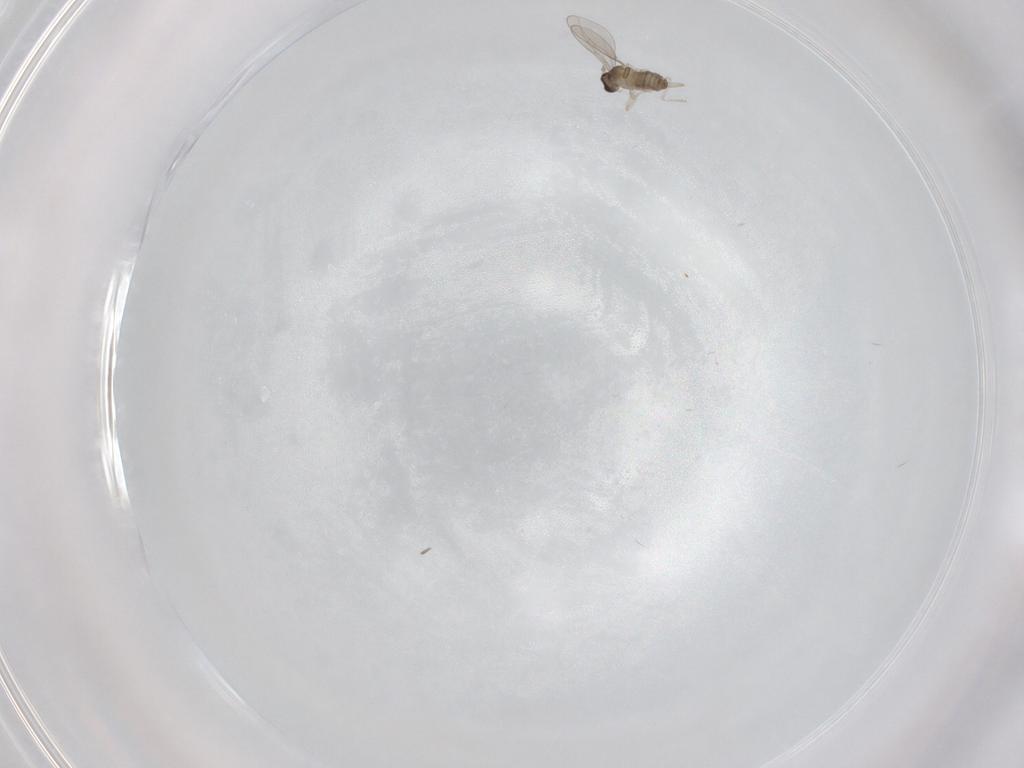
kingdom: Animalia
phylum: Arthropoda
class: Insecta
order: Diptera
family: Cecidomyiidae
